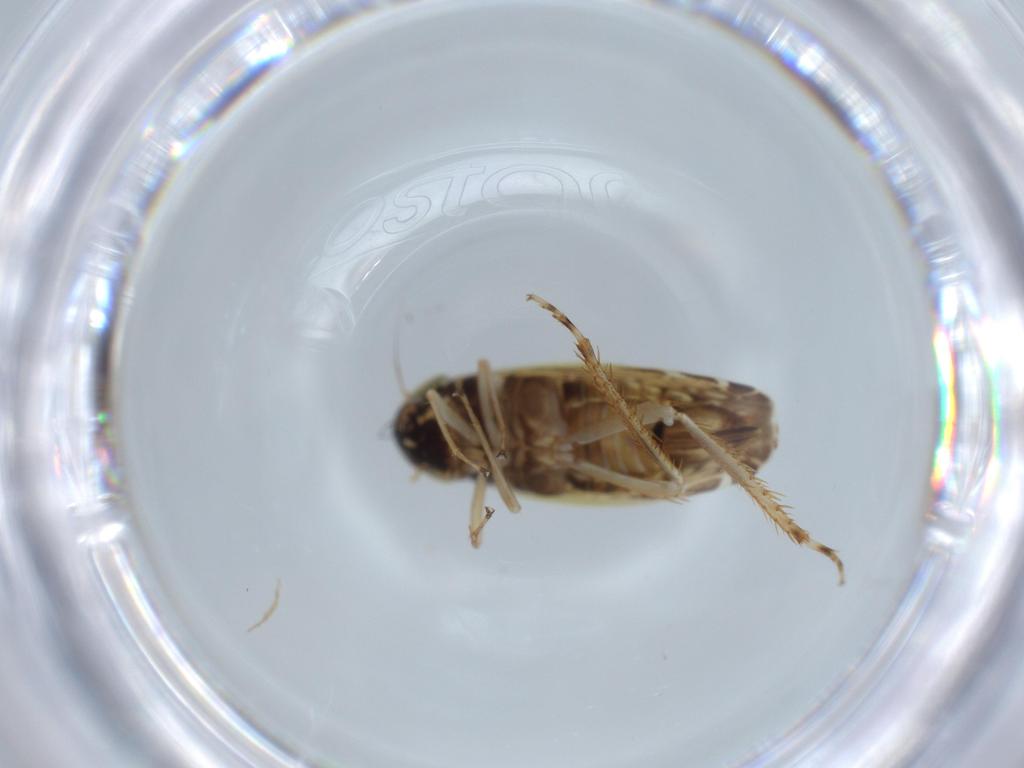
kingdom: Animalia
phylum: Arthropoda
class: Insecta
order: Hemiptera
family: Cicadellidae
